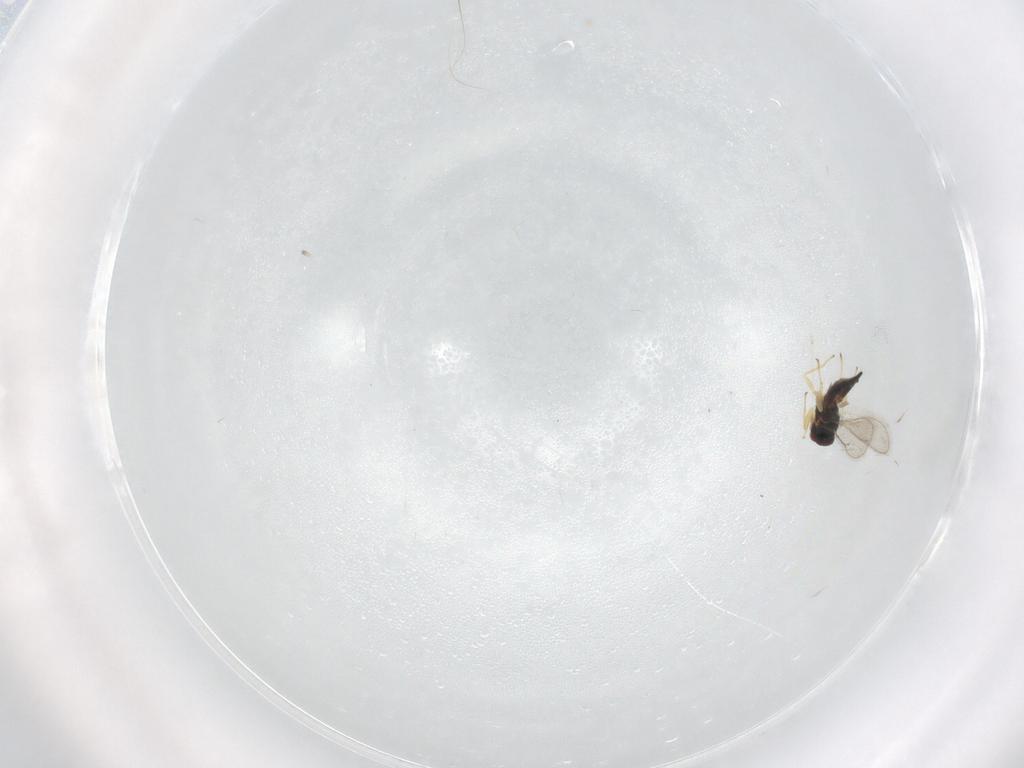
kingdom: Animalia
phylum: Arthropoda
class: Insecta
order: Hymenoptera
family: Eulophidae
